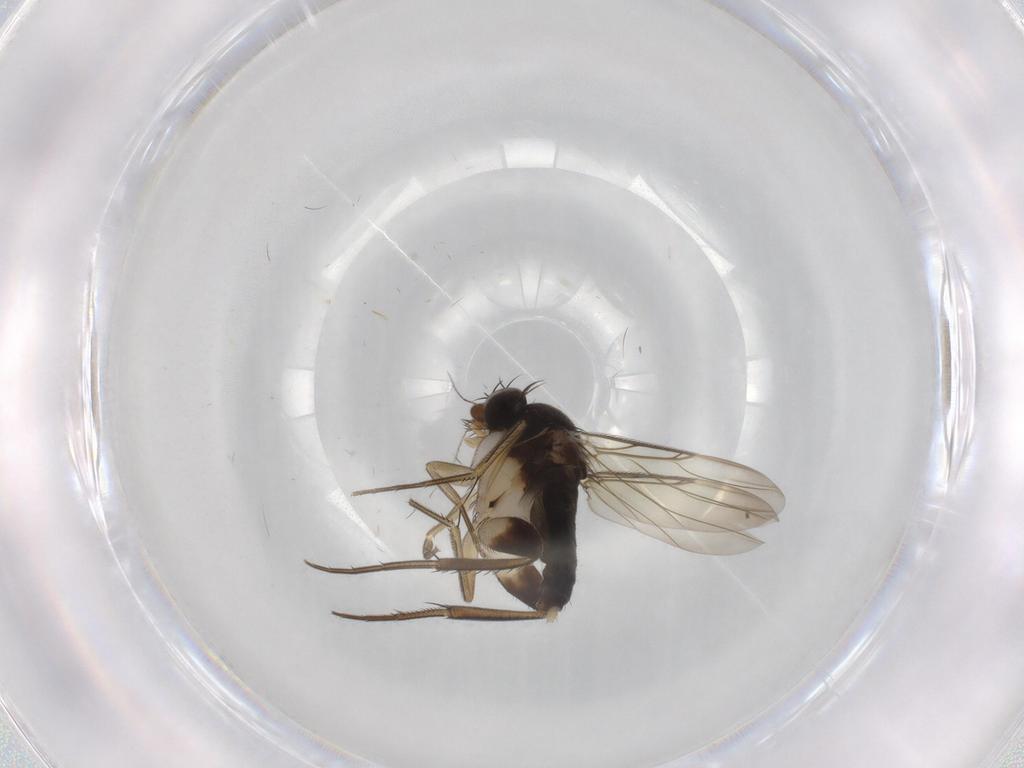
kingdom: Animalia
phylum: Arthropoda
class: Insecta
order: Diptera
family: Phoridae
